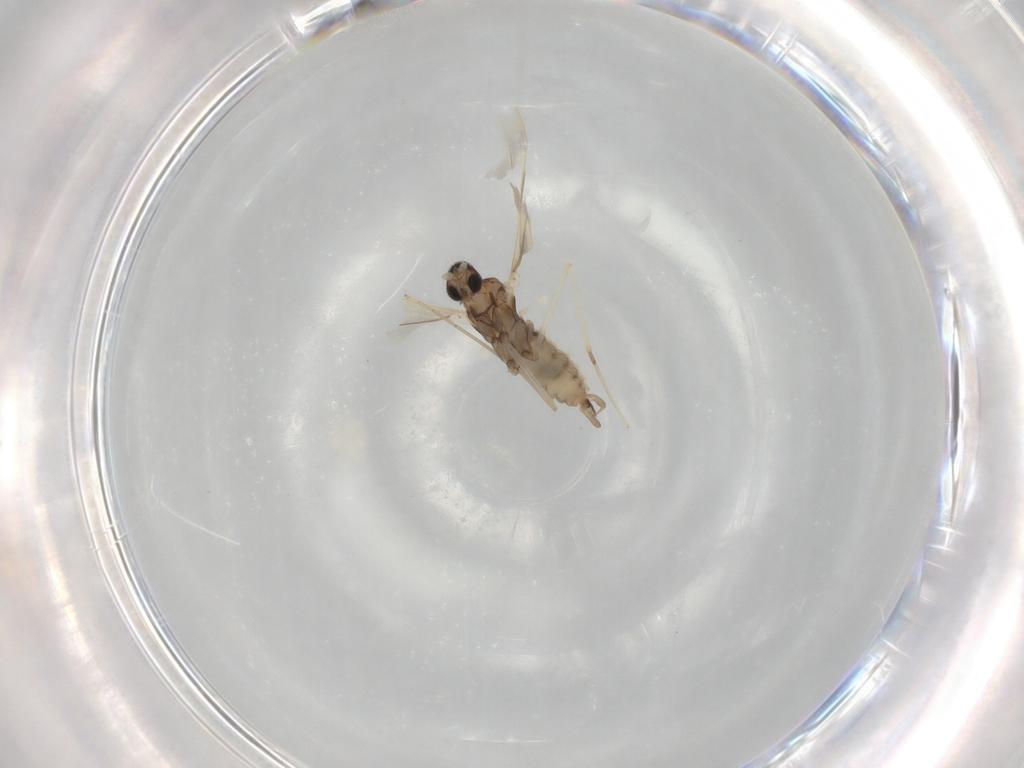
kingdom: Animalia
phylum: Arthropoda
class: Insecta
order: Diptera
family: Cecidomyiidae
